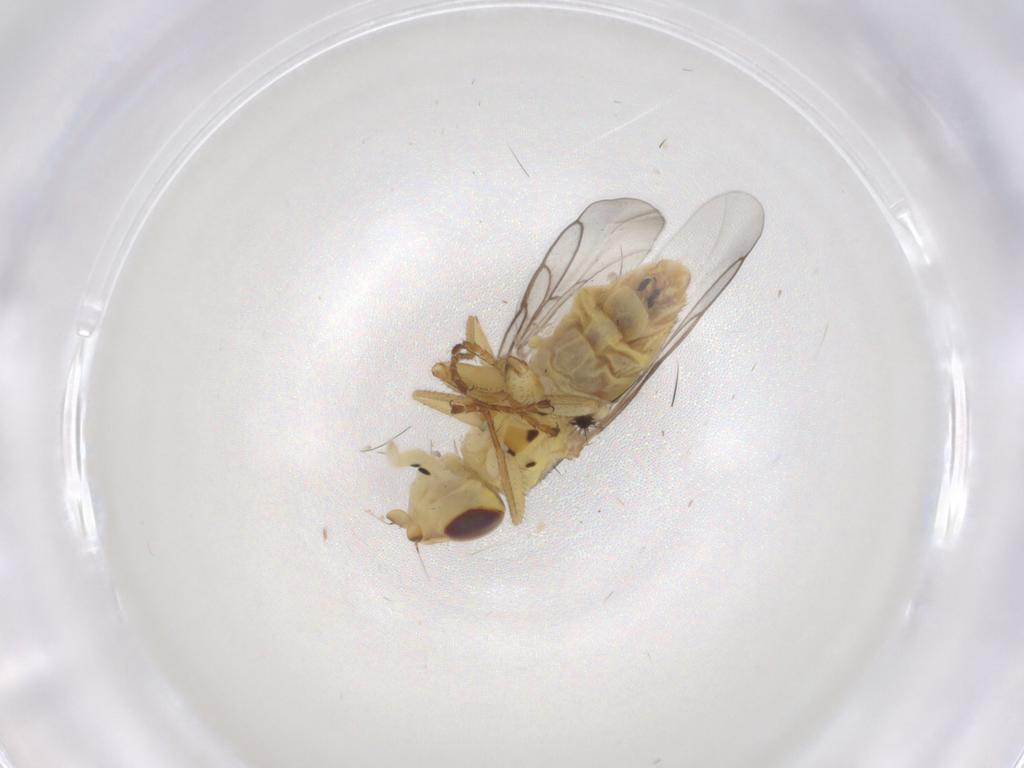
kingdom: Animalia
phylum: Arthropoda
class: Insecta
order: Diptera
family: Chloropidae
